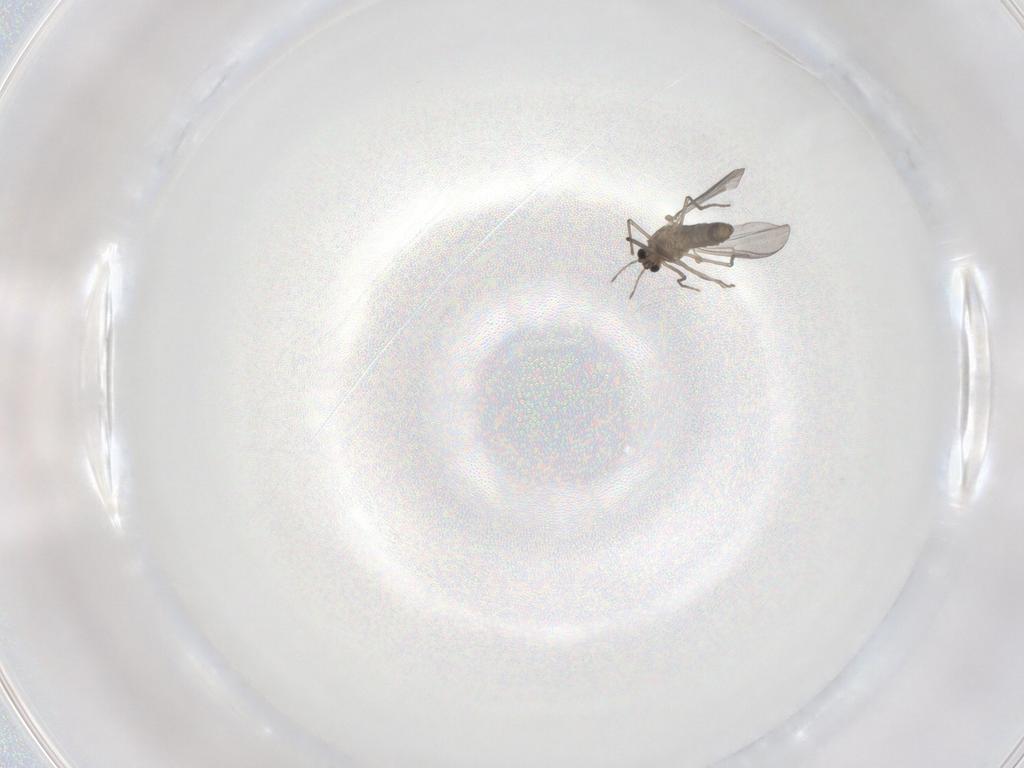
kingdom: Animalia
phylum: Arthropoda
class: Insecta
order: Diptera
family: Chironomidae
